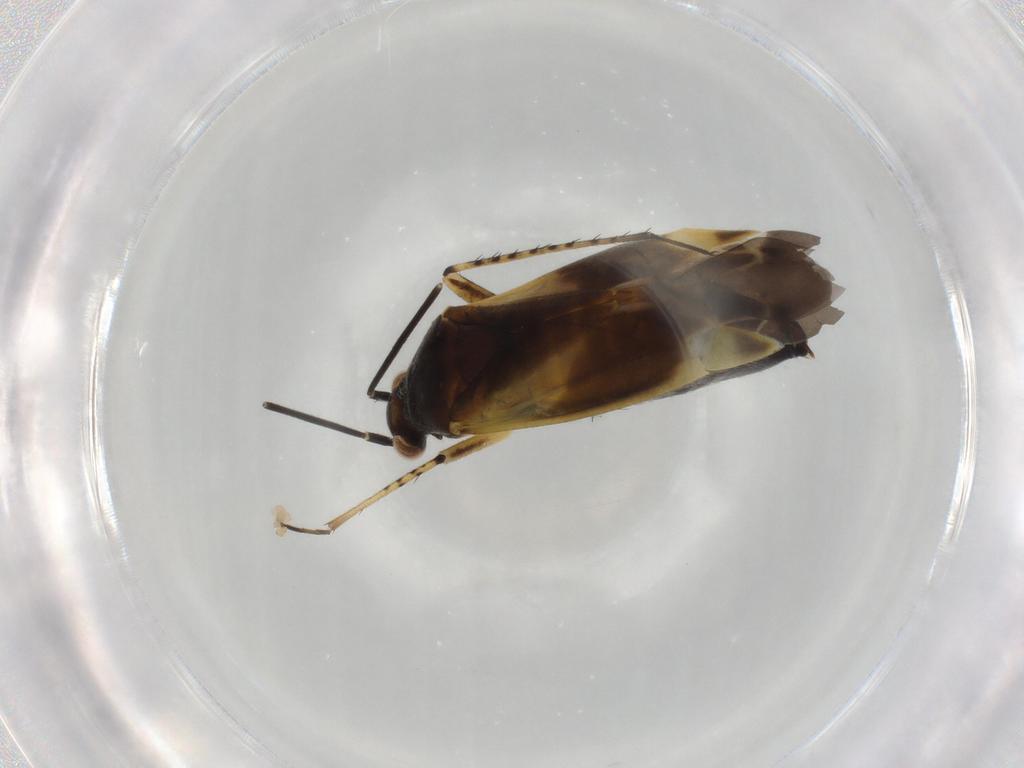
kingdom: Animalia
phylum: Arthropoda
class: Insecta
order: Hemiptera
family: Miridae
